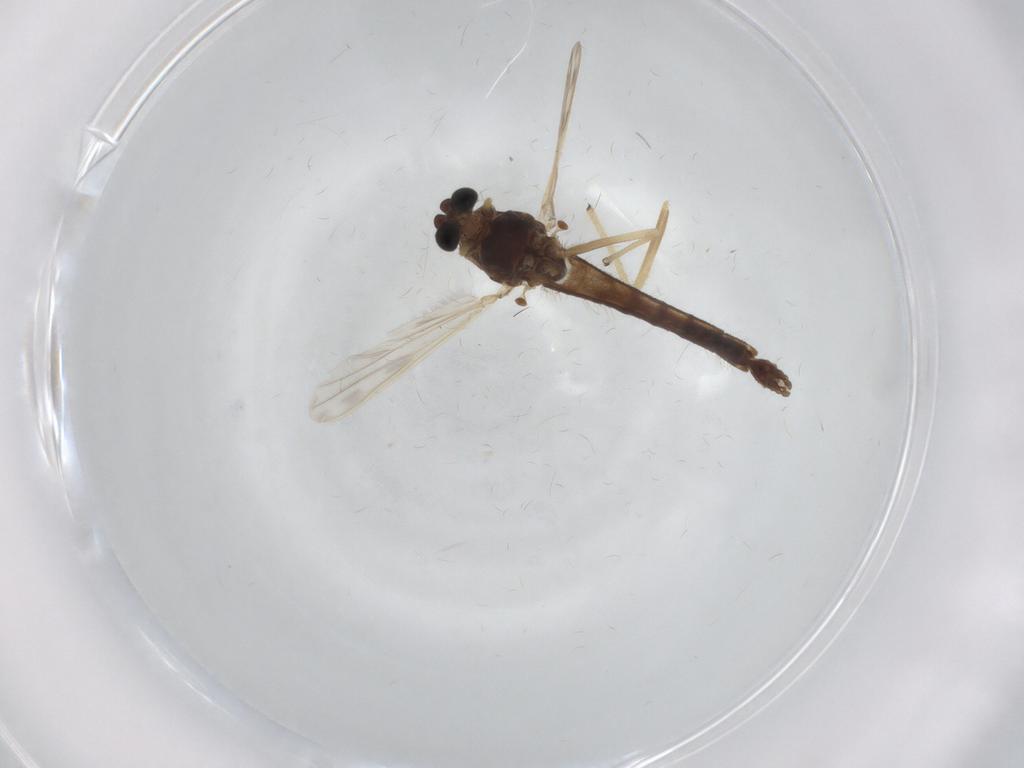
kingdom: Animalia
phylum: Arthropoda
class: Insecta
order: Diptera
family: Chironomidae
